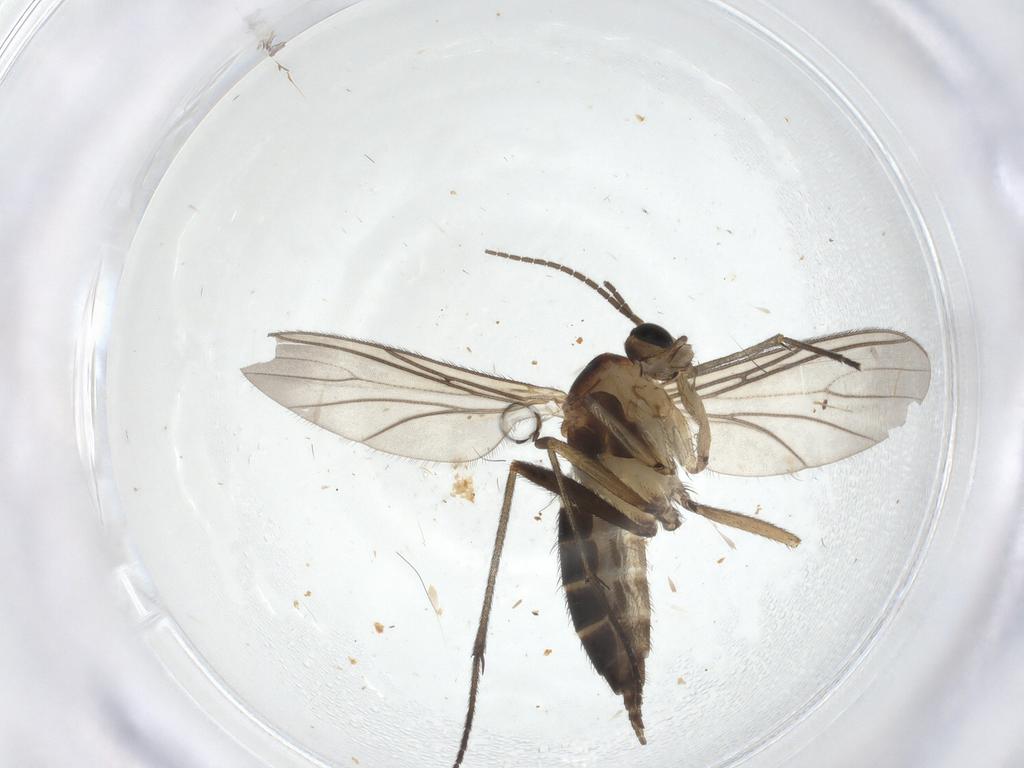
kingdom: Animalia
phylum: Arthropoda
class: Insecta
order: Diptera
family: Sciaridae
